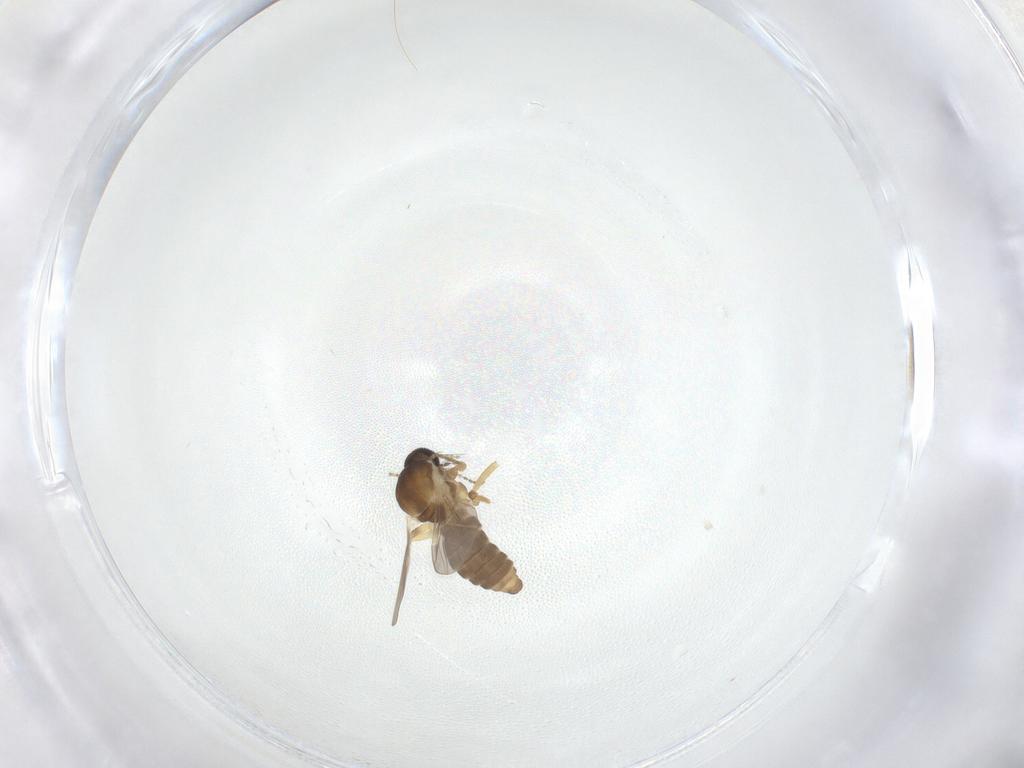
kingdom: Animalia
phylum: Arthropoda
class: Insecta
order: Diptera
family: Ceratopogonidae
